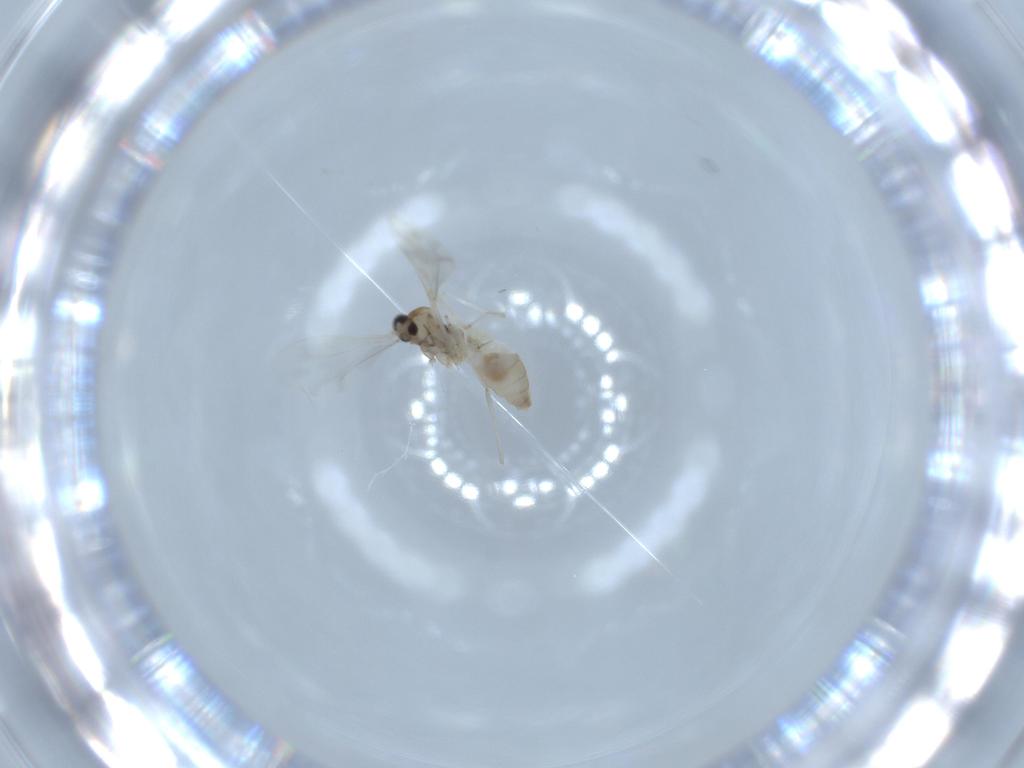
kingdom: Animalia
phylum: Arthropoda
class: Insecta
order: Diptera
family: Cecidomyiidae
